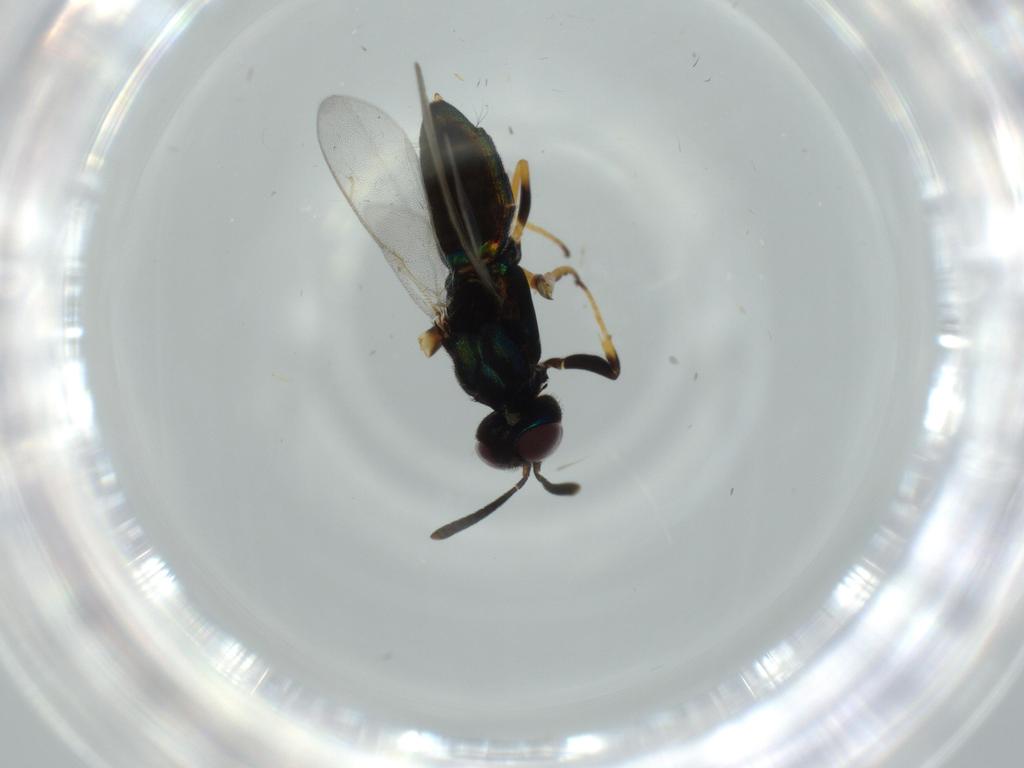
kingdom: Animalia
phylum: Arthropoda
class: Insecta
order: Hymenoptera
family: Eupelmidae
